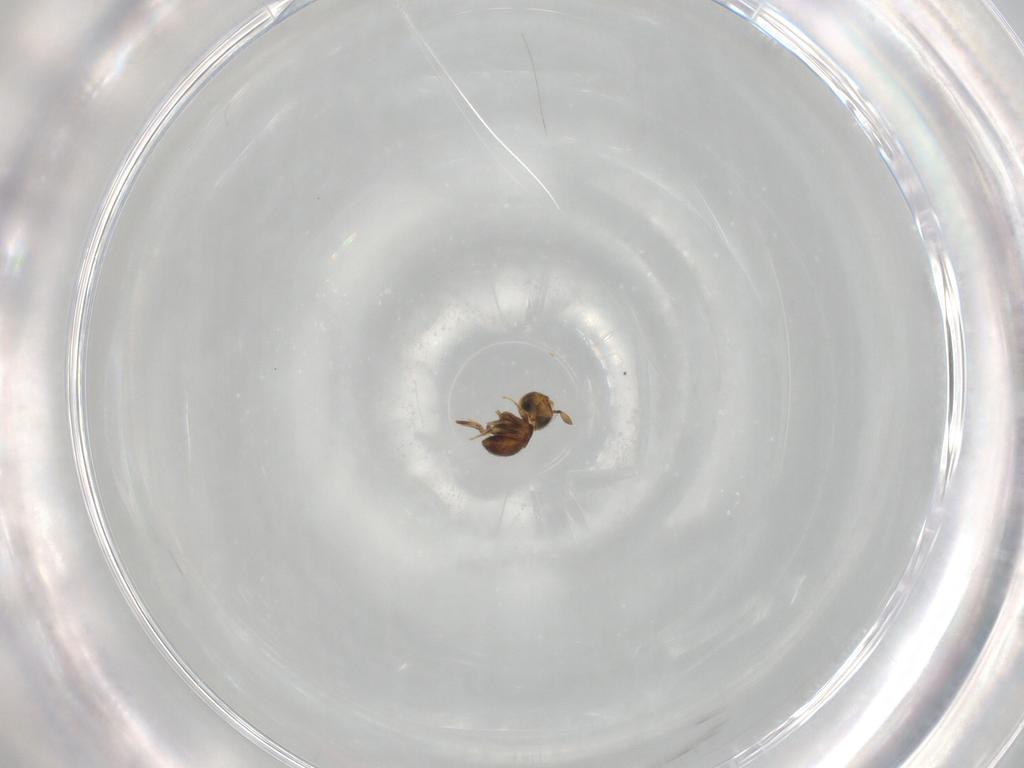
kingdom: Animalia
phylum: Arthropoda
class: Insecta
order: Hymenoptera
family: Scelionidae
